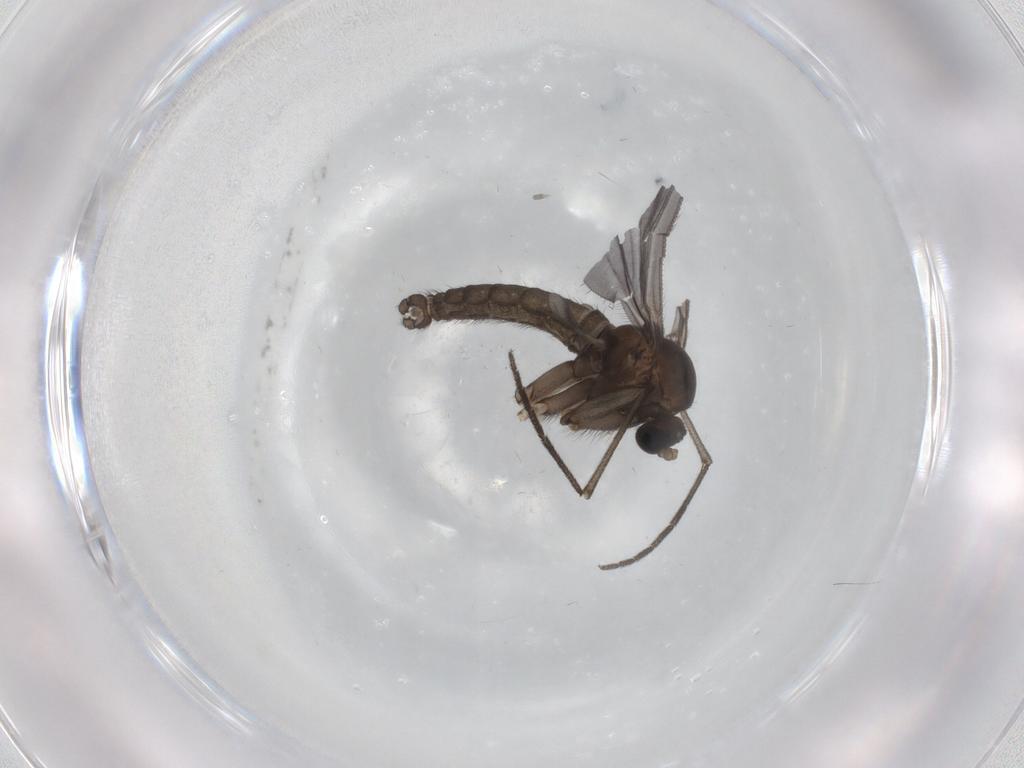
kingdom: Animalia
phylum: Arthropoda
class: Insecta
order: Diptera
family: Sciaridae
